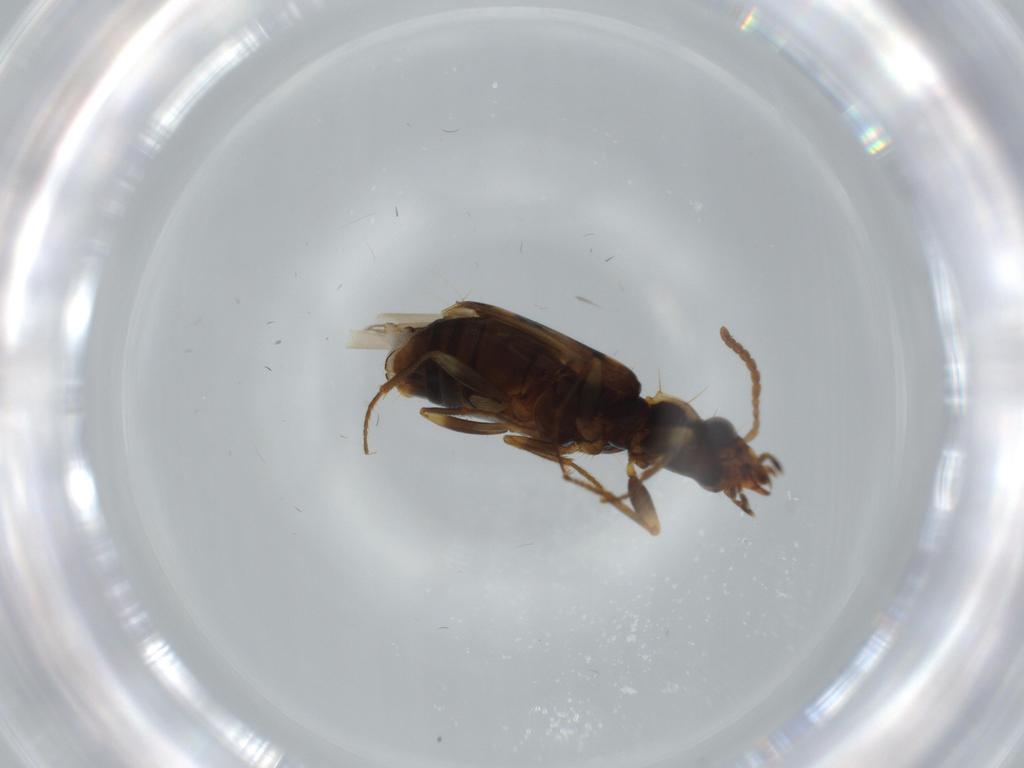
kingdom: Animalia
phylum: Arthropoda
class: Insecta
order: Coleoptera
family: Carabidae
